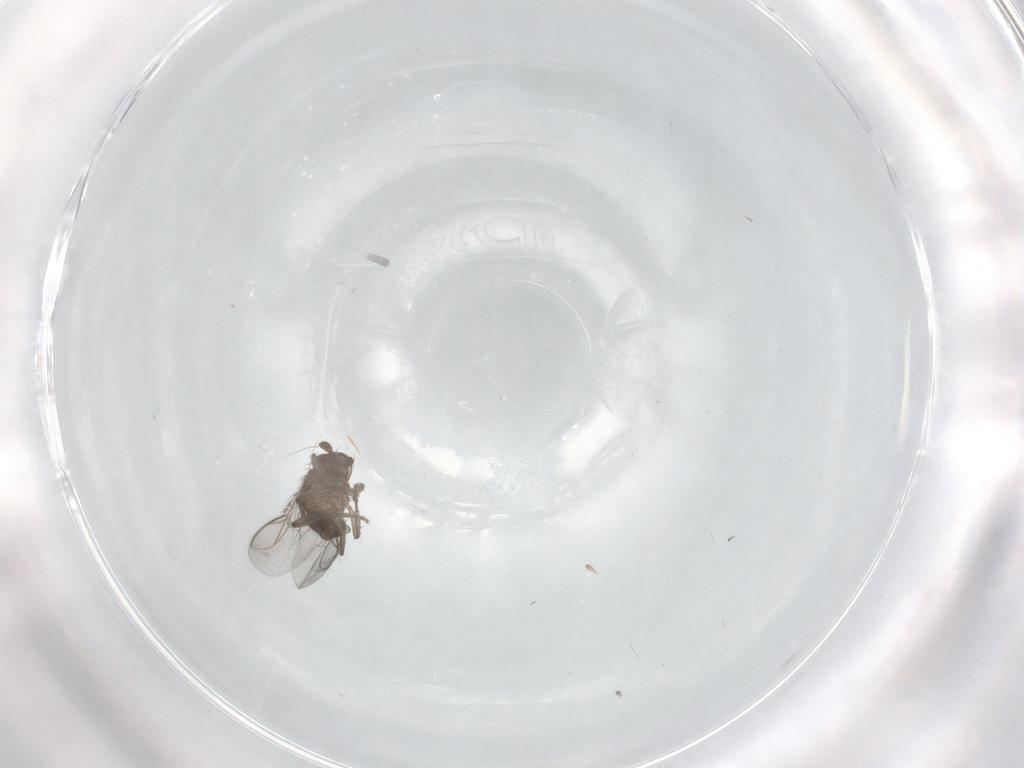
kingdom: Animalia
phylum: Arthropoda
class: Insecta
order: Diptera
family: Sphaeroceridae
